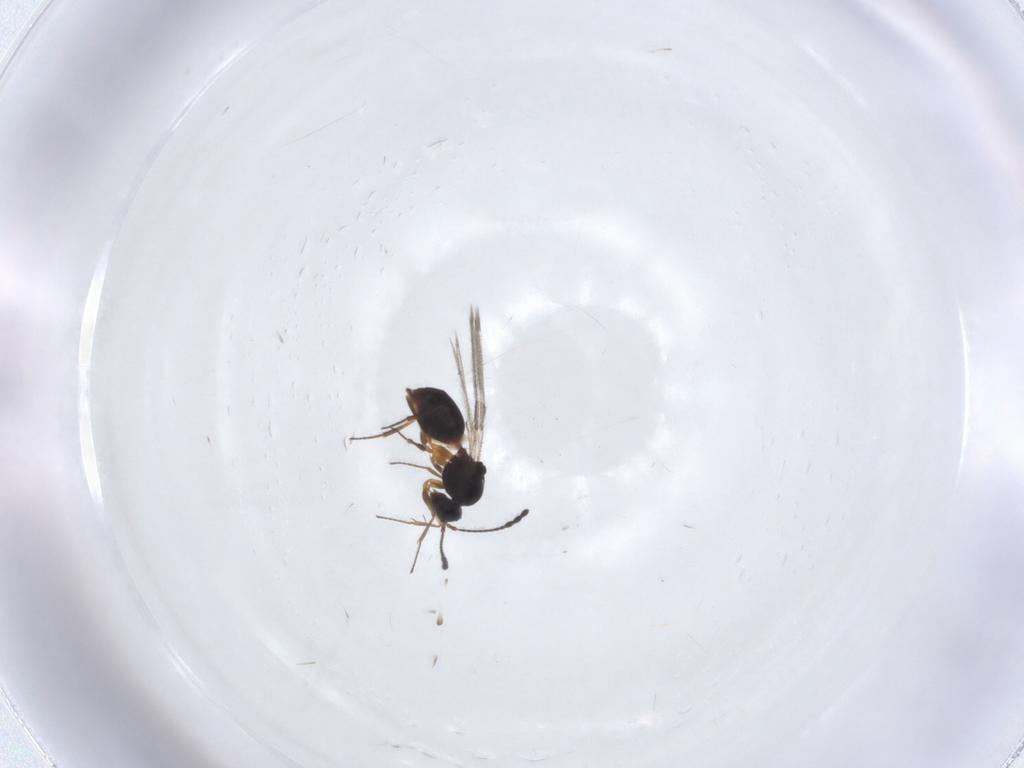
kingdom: Animalia
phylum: Arthropoda
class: Insecta
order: Hymenoptera
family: Figitidae
